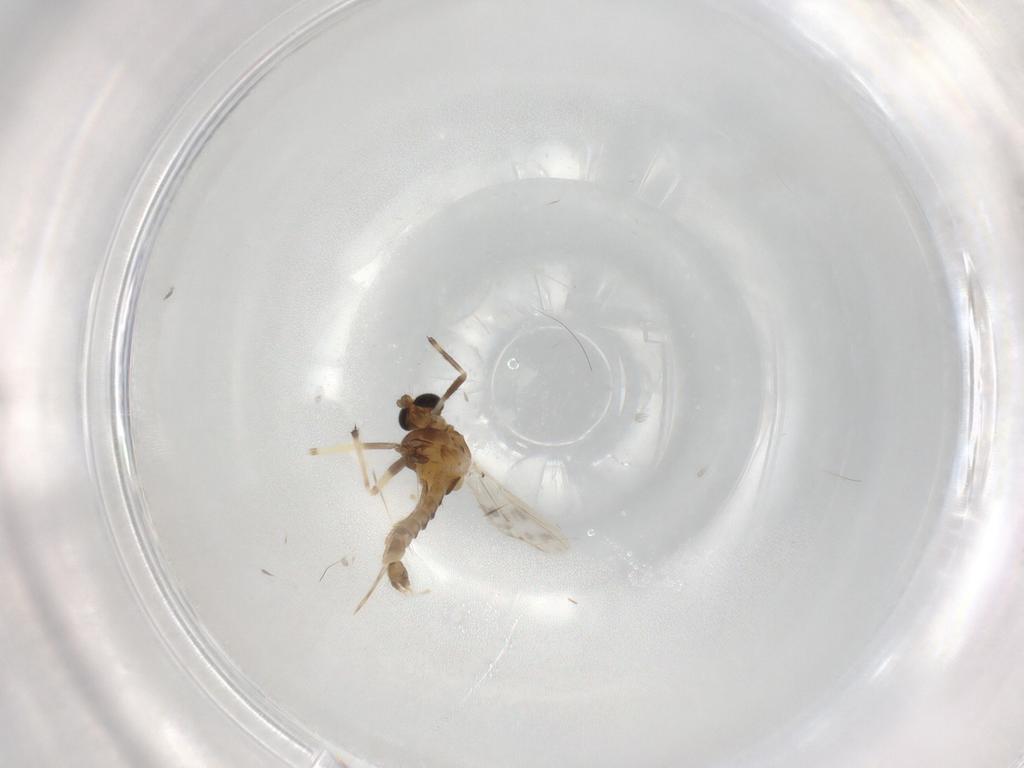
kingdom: Animalia
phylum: Arthropoda
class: Insecta
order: Diptera
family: Chironomidae
